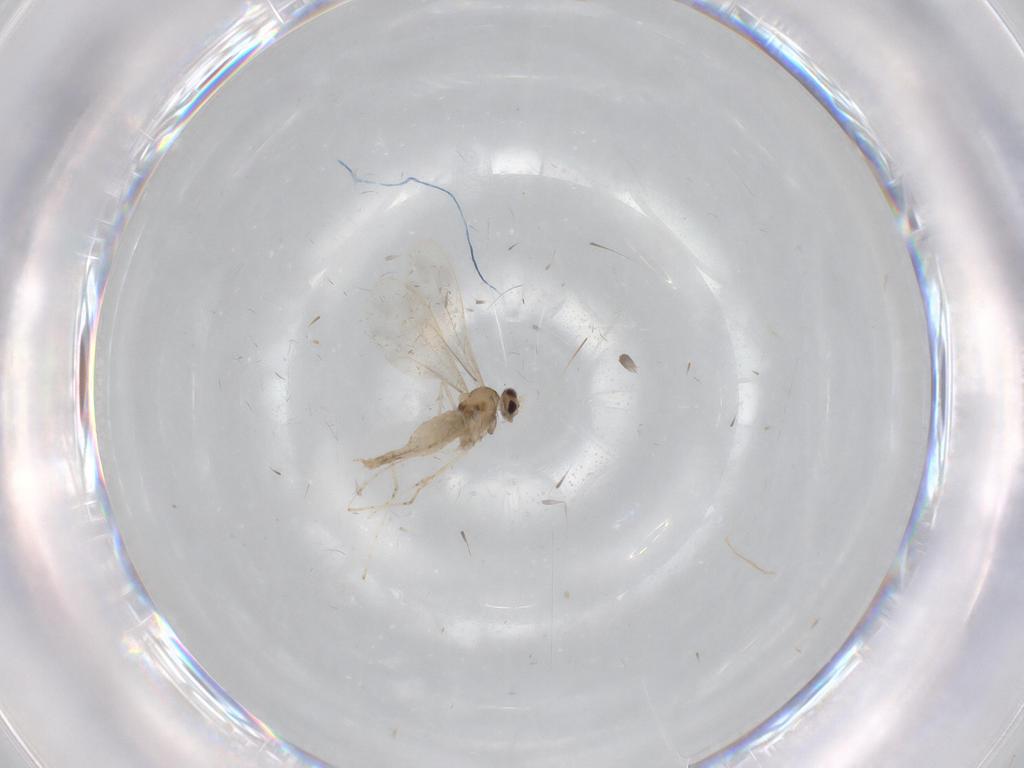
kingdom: Animalia
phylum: Arthropoda
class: Insecta
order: Diptera
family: Cecidomyiidae
